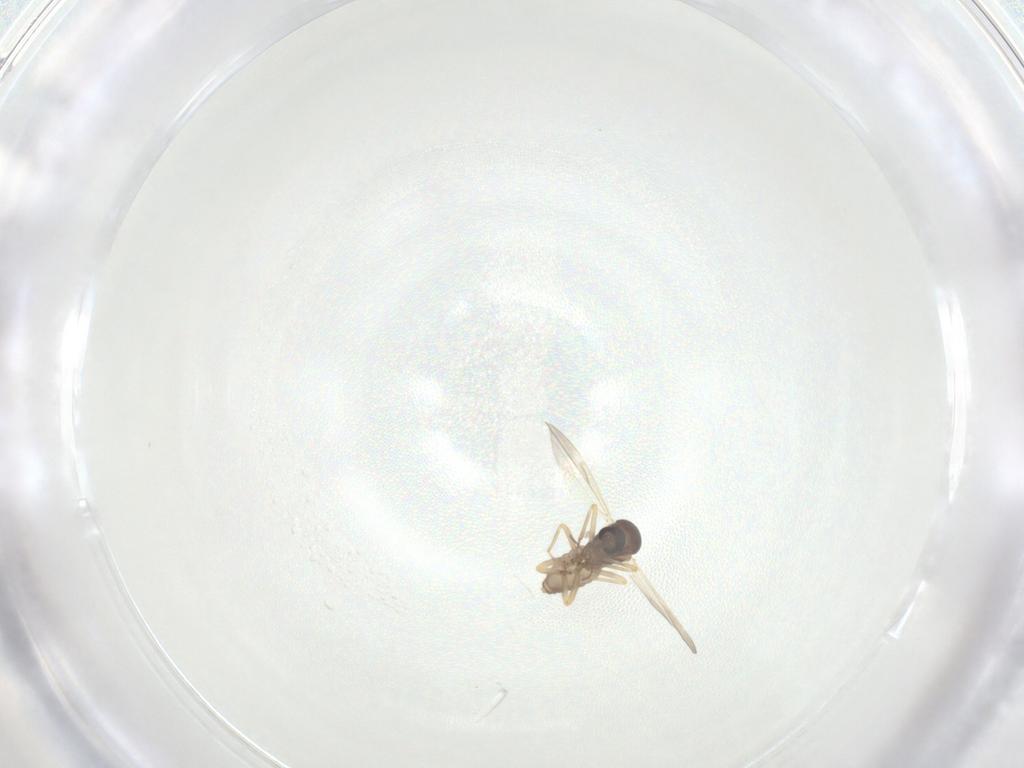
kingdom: Animalia
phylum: Arthropoda
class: Insecta
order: Diptera
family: Ceratopogonidae
